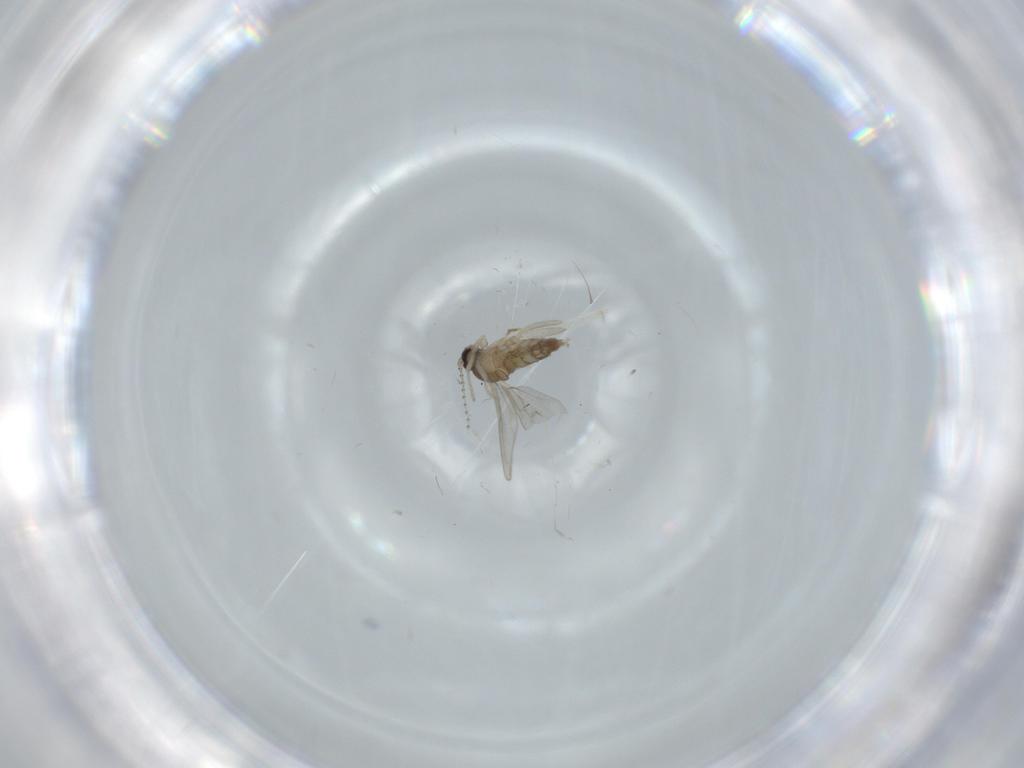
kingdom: Animalia
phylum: Arthropoda
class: Insecta
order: Diptera
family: Cecidomyiidae
